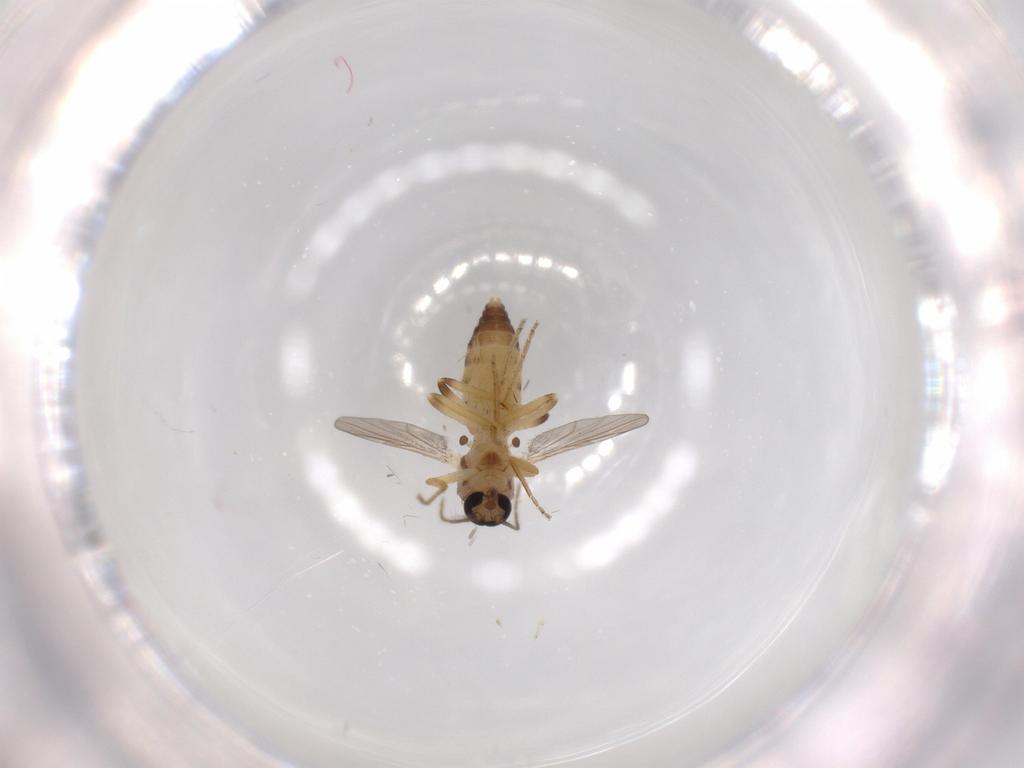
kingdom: Animalia
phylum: Arthropoda
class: Insecta
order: Diptera
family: Ceratopogonidae
